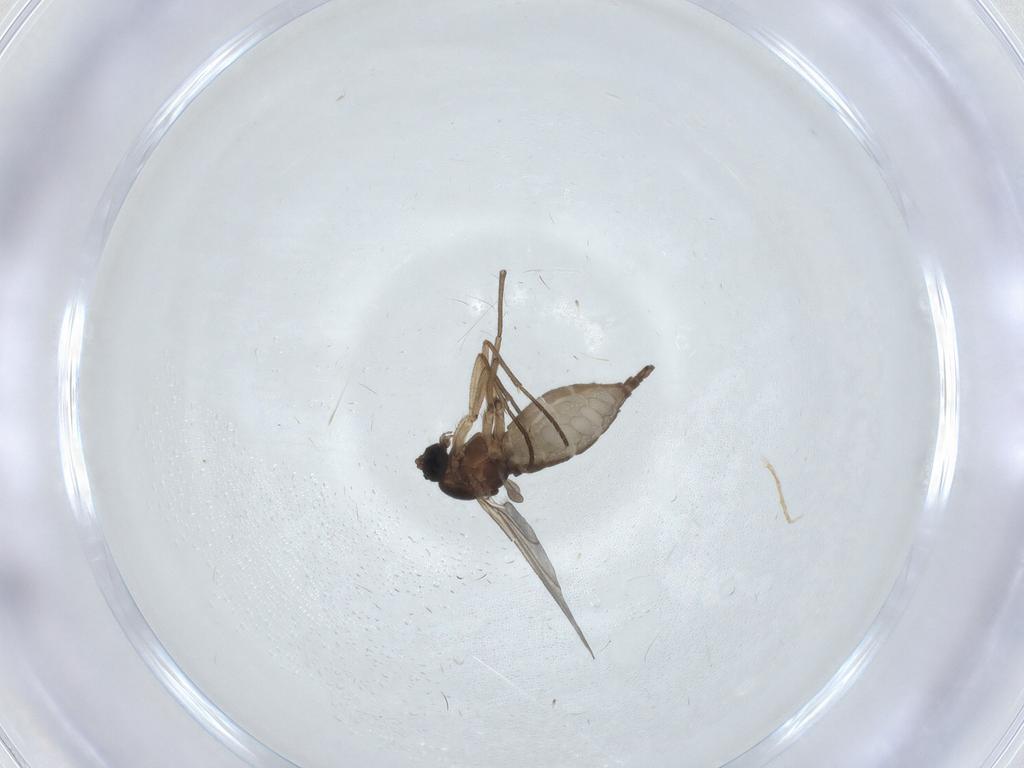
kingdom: Animalia
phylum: Arthropoda
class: Insecta
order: Diptera
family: Sciaridae
